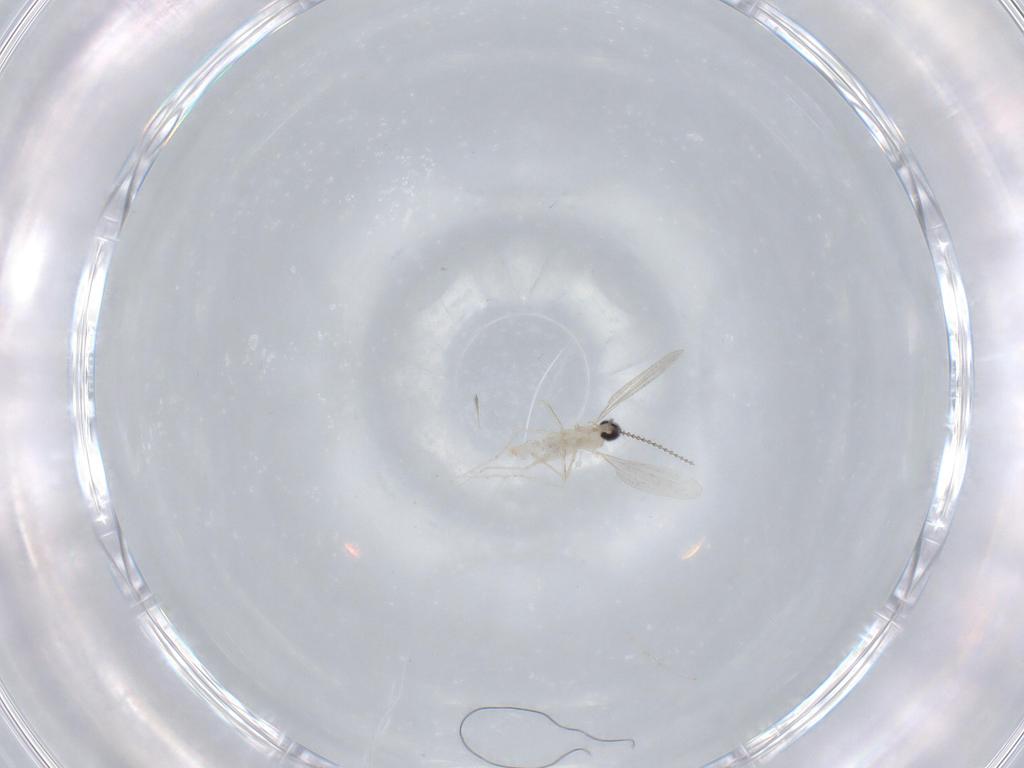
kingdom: Animalia
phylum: Arthropoda
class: Insecta
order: Diptera
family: Cecidomyiidae
